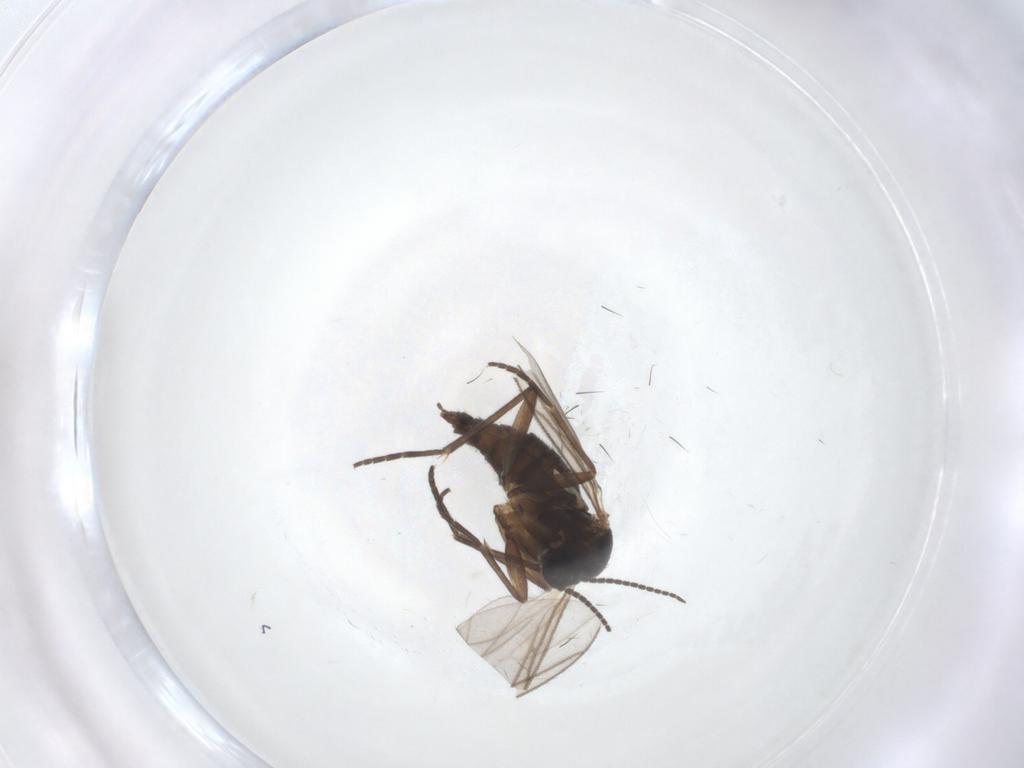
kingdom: Animalia
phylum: Arthropoda
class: Insecta
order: Diptera
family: Sciaridae
